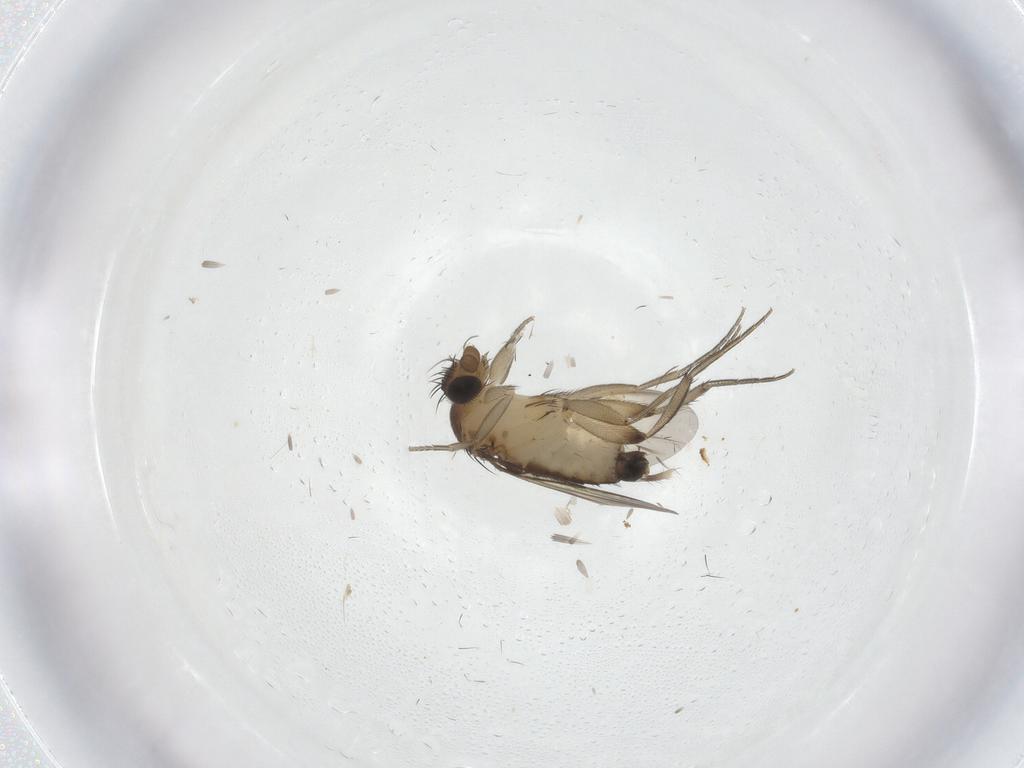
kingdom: Animalia
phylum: Arthropoda
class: Insecta
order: Diptera
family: Phoridae
